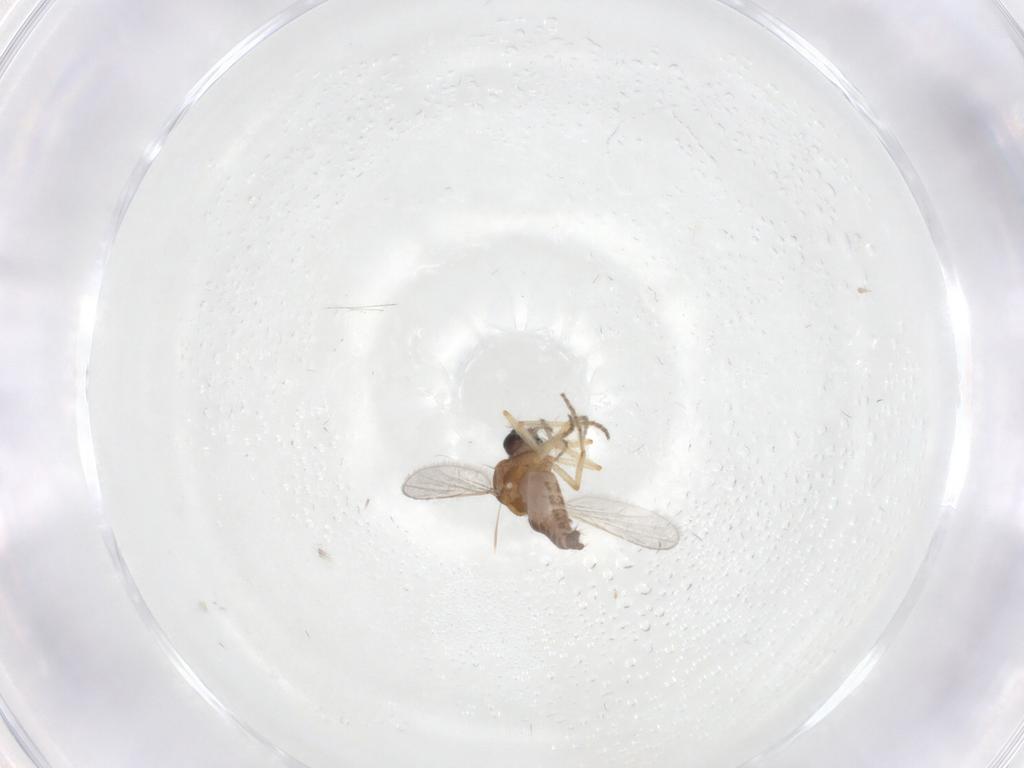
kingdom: Animalia
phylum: Arthropoda
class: Insecta
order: Diptera
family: Ceratopogonidae
